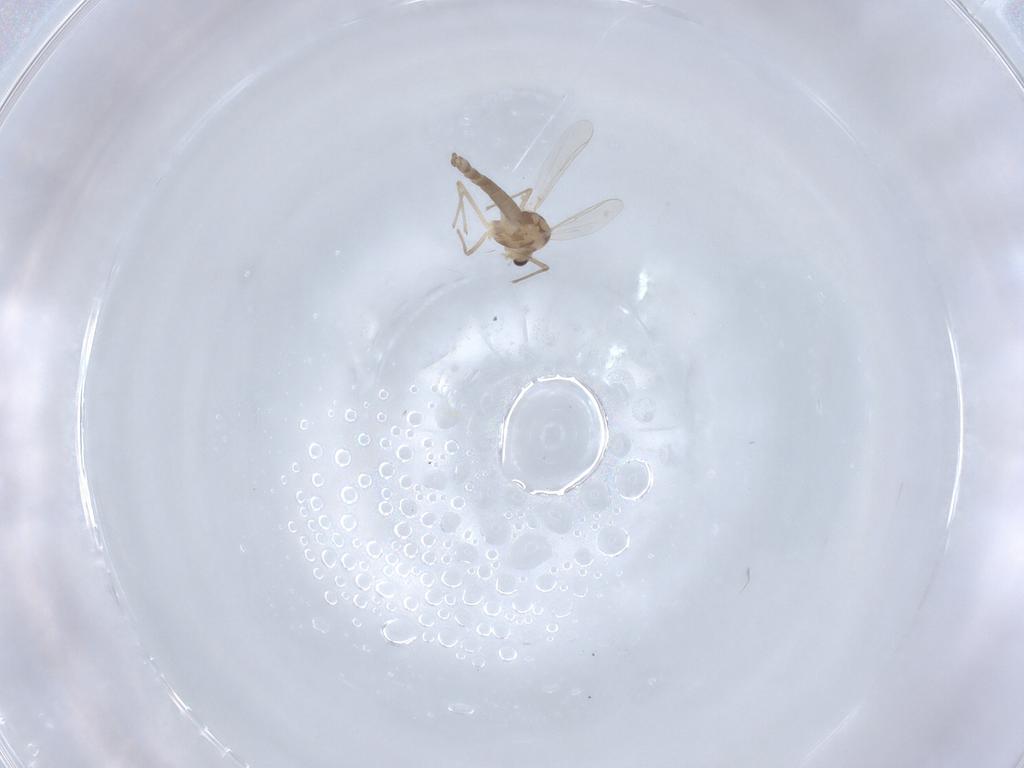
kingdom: Animalia
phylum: Arthropoda
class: Insecta
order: Diptera
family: Chironomidae
